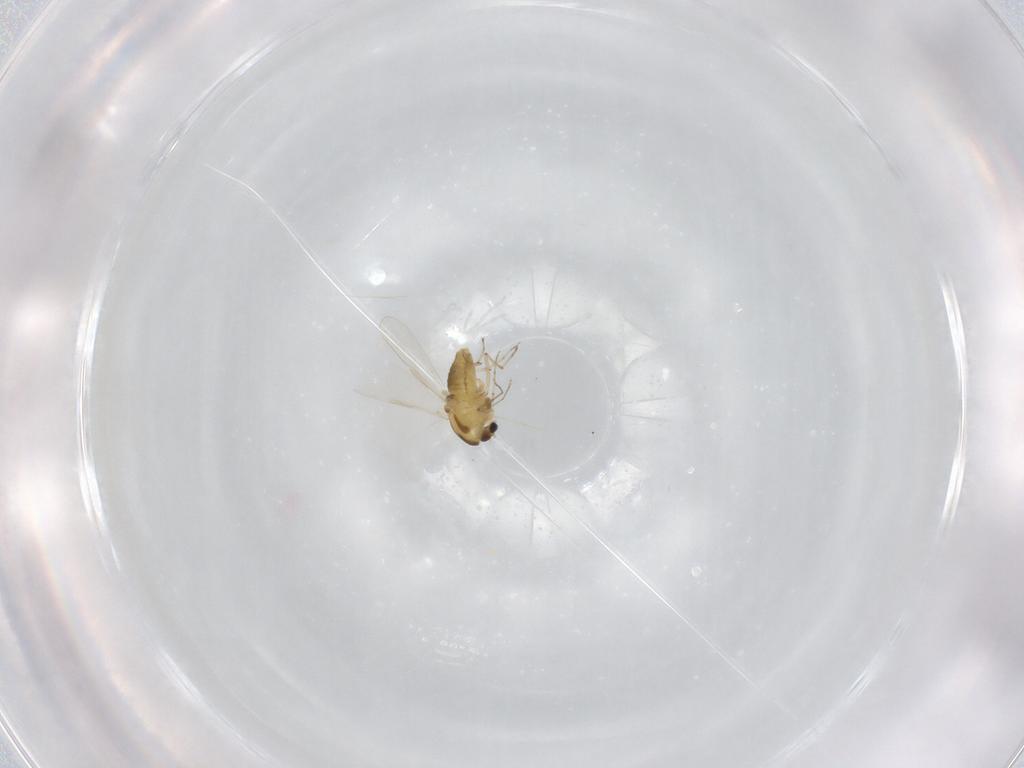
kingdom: Animalia
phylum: Arthropoda
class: Insecta
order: Diptera
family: Chironomidae
